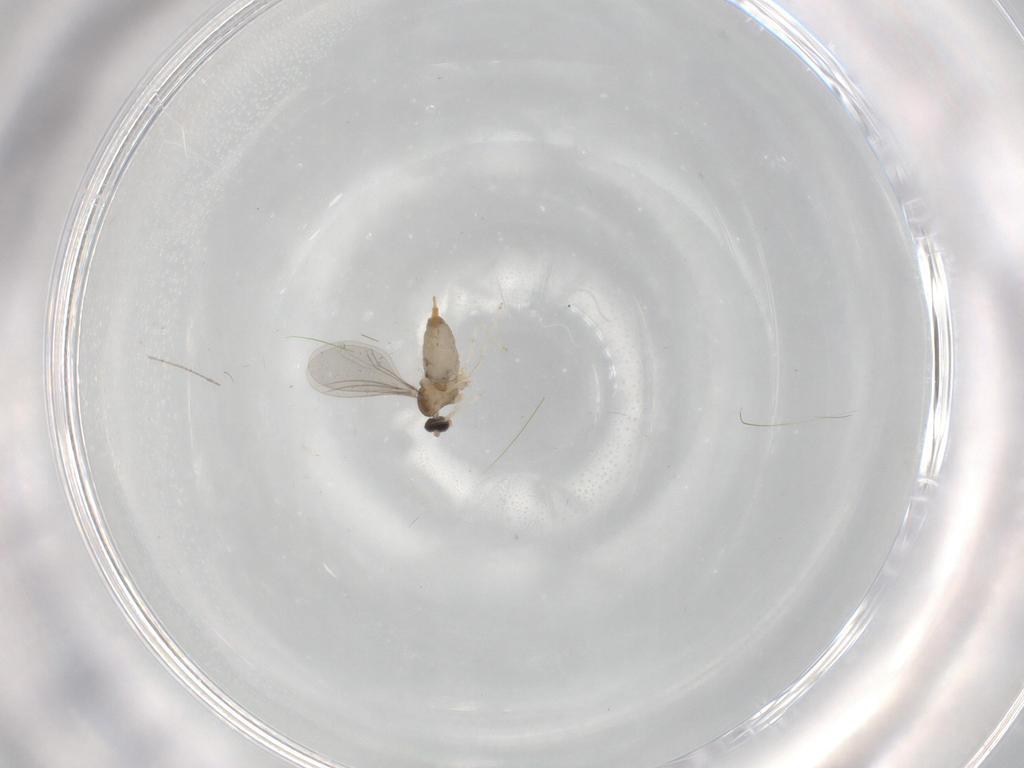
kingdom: Animalia
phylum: Arthropoda
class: Insecta
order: Diptera
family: Cecidomyiidae
